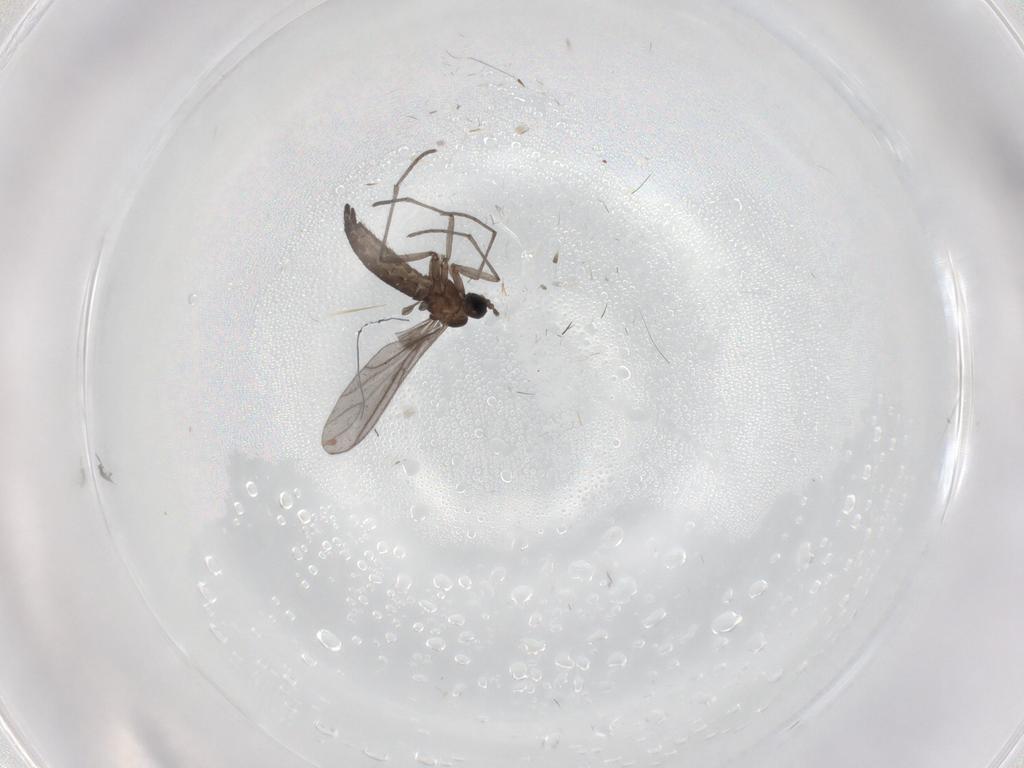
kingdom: Animalia
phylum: Arthropoda
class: Insecta
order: Diptera
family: Sciaridae
